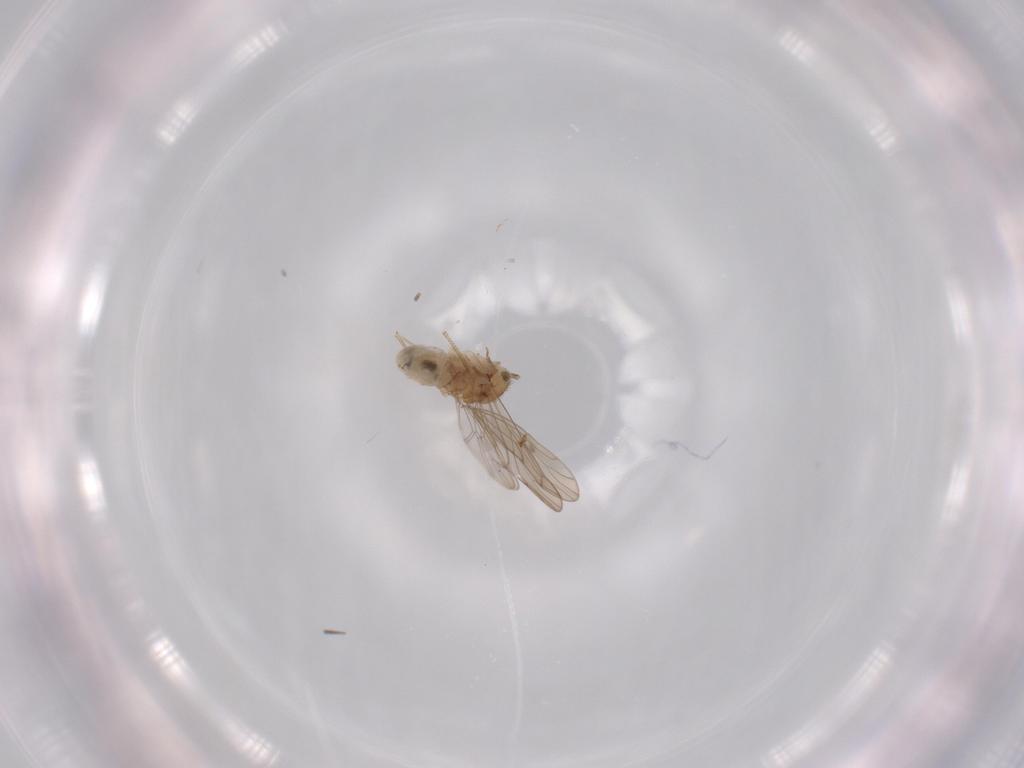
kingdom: Animalia
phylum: Arthropoda
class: Insecta
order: Psocodea
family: Ectopsocidae
